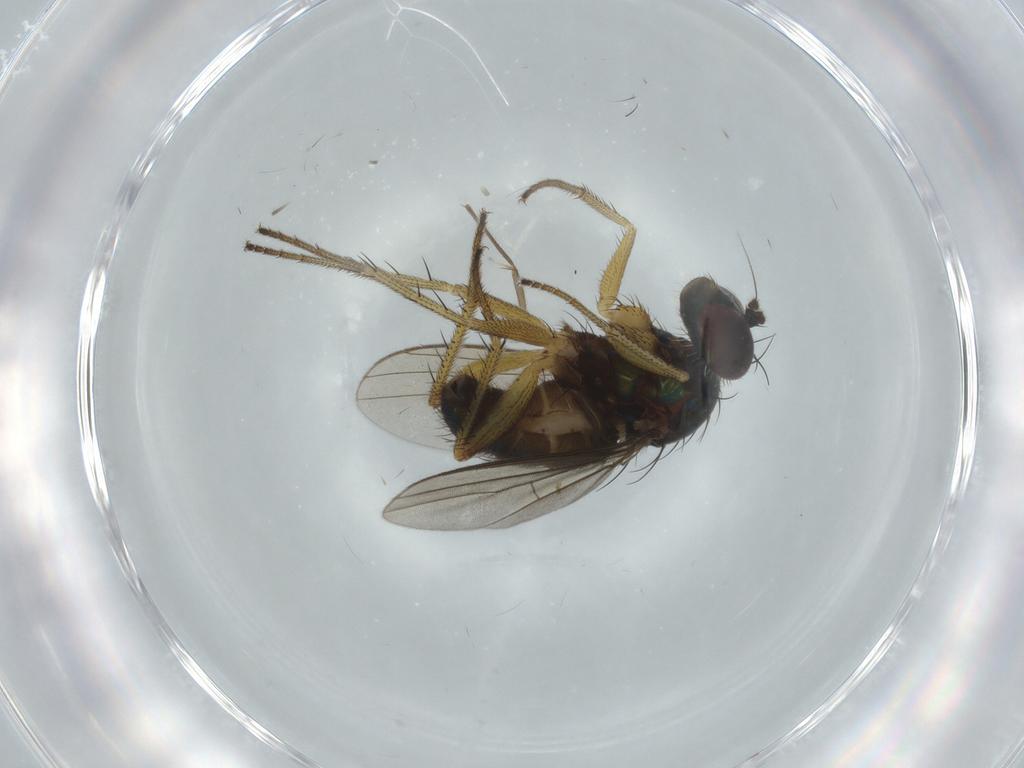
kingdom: Animalia
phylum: Arthropoda
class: Insecta
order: Diptera
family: Dolichopodidae
